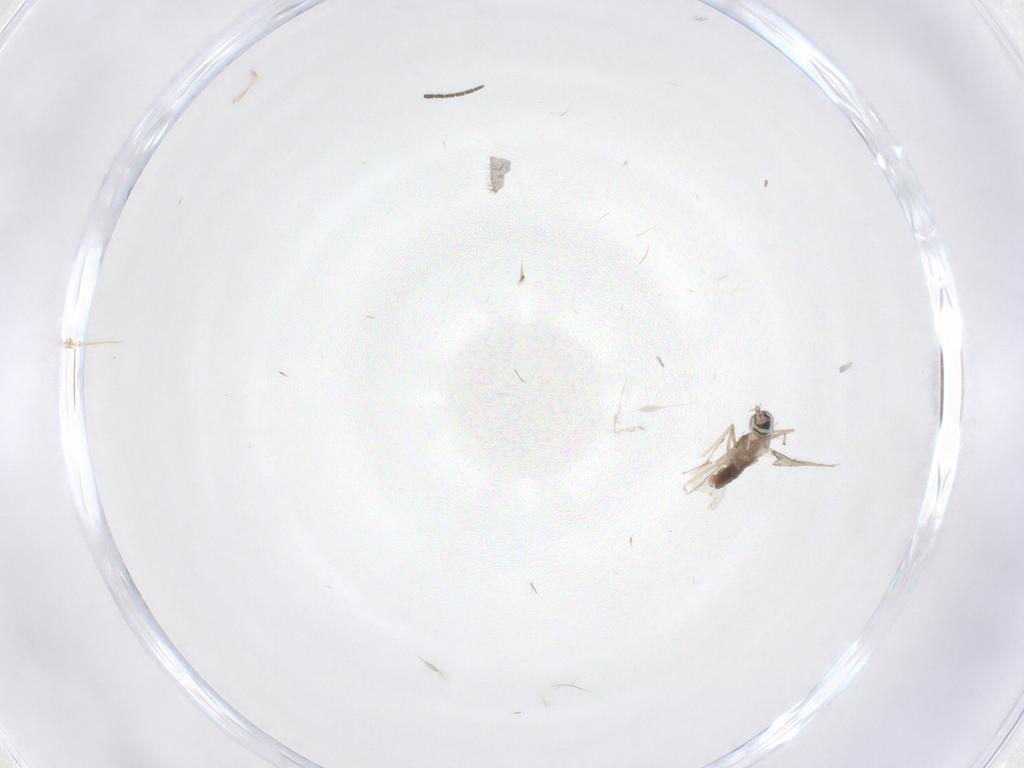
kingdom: Animalia
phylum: Arthropoda
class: Insecta
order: Diptera
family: Cecidomyiidae
